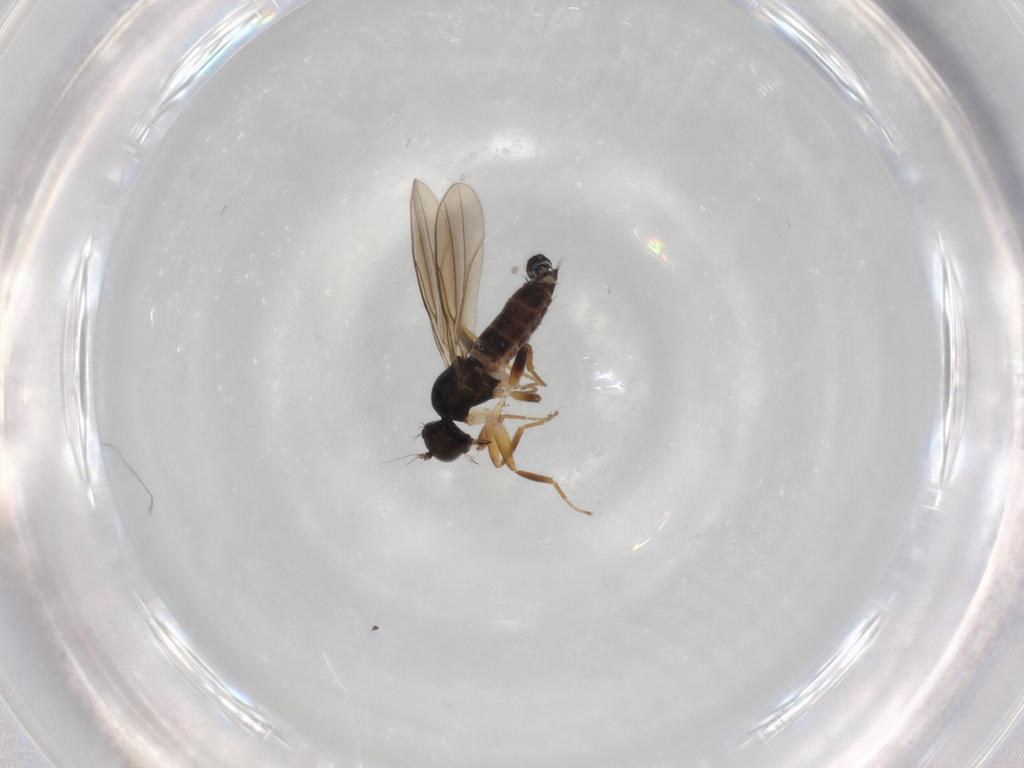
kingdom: Animalia
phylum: Arthropoda
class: Insecta
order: Diptera
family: Hybotidae
